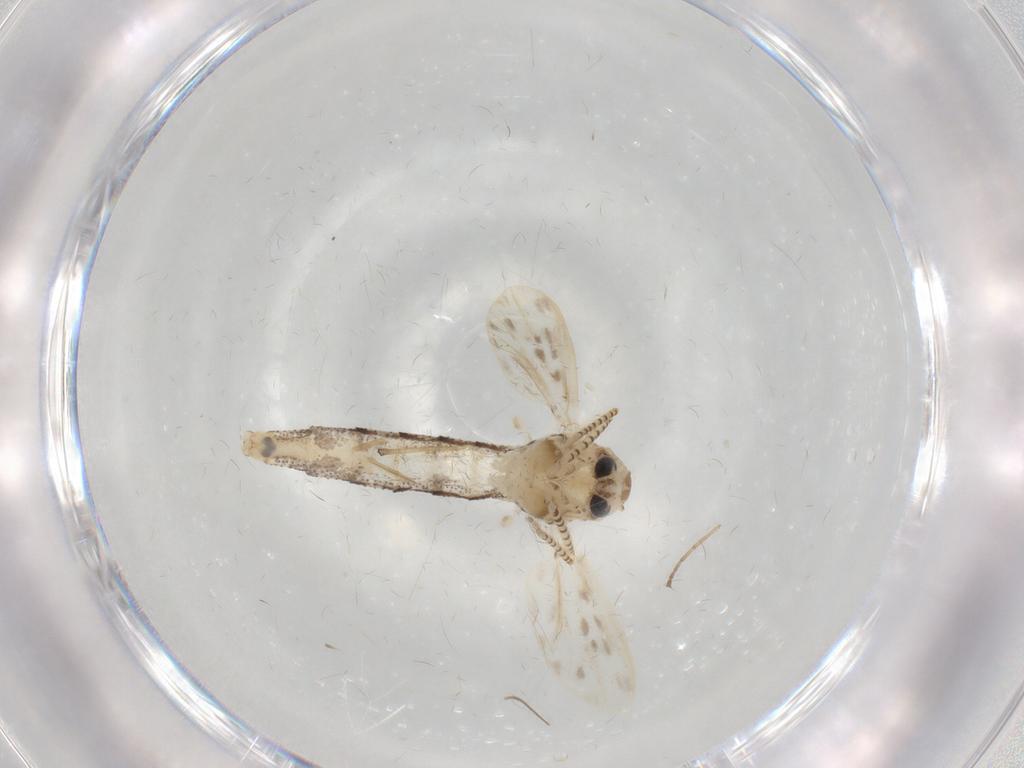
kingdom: Animalia
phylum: Arthropoda
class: Insecta
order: Diptera
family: Chaoboridae
